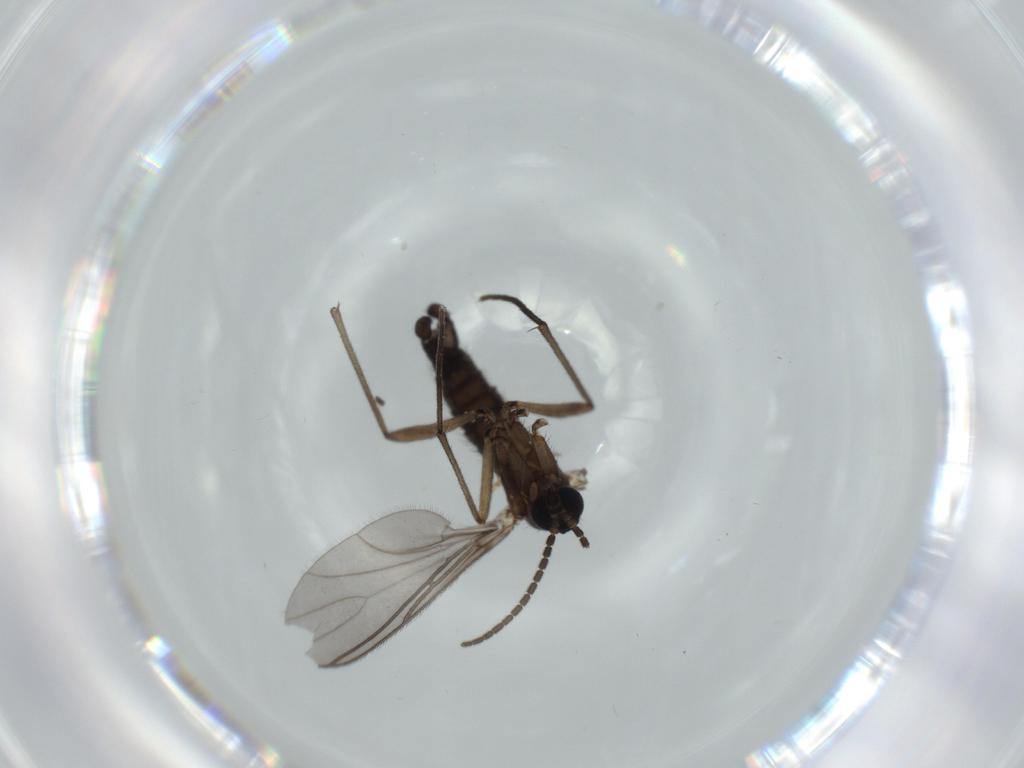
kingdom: Animalia
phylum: Arthropoda
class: Insecta
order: Diptera
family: Sciaridae
